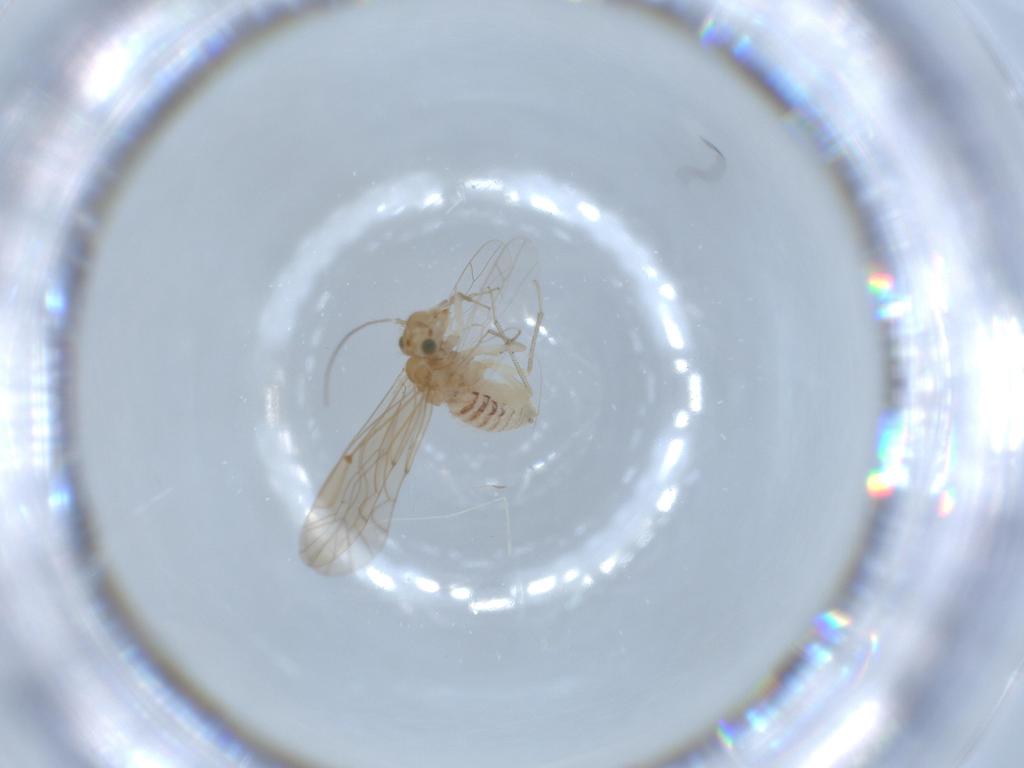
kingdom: Animalia
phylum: Arthropoda
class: Insecta
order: Psocodea
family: Lachesillidae
